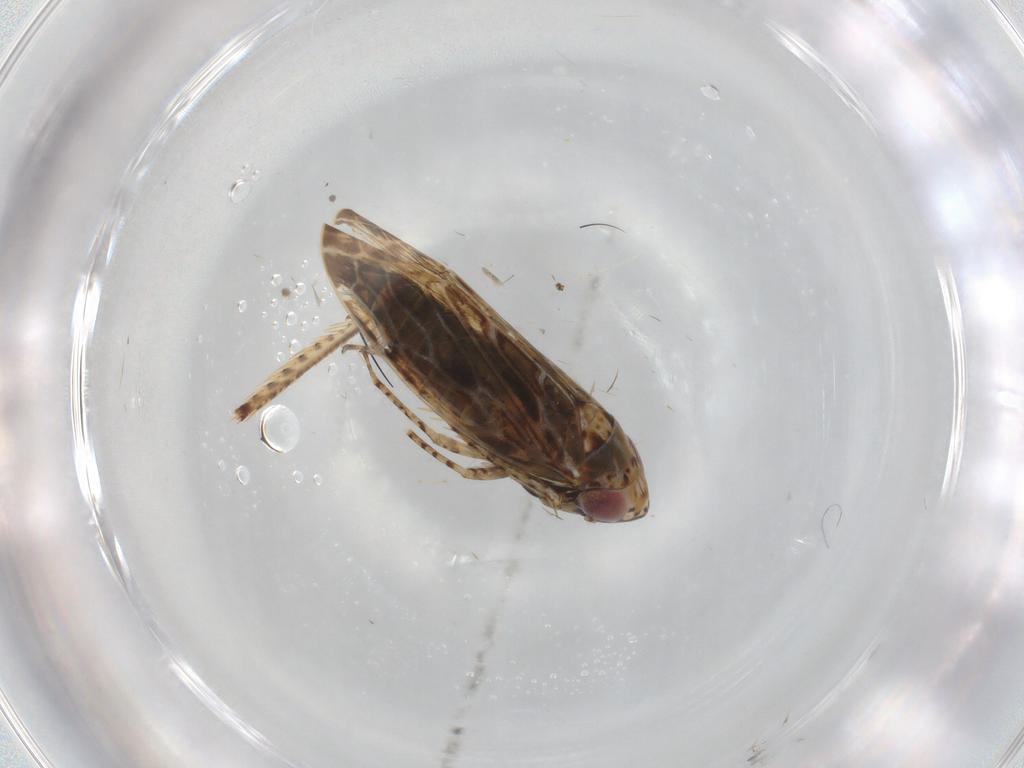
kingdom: Animalia
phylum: Arthropoda
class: Insecta
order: Hemiptera
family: Cicadellidae
